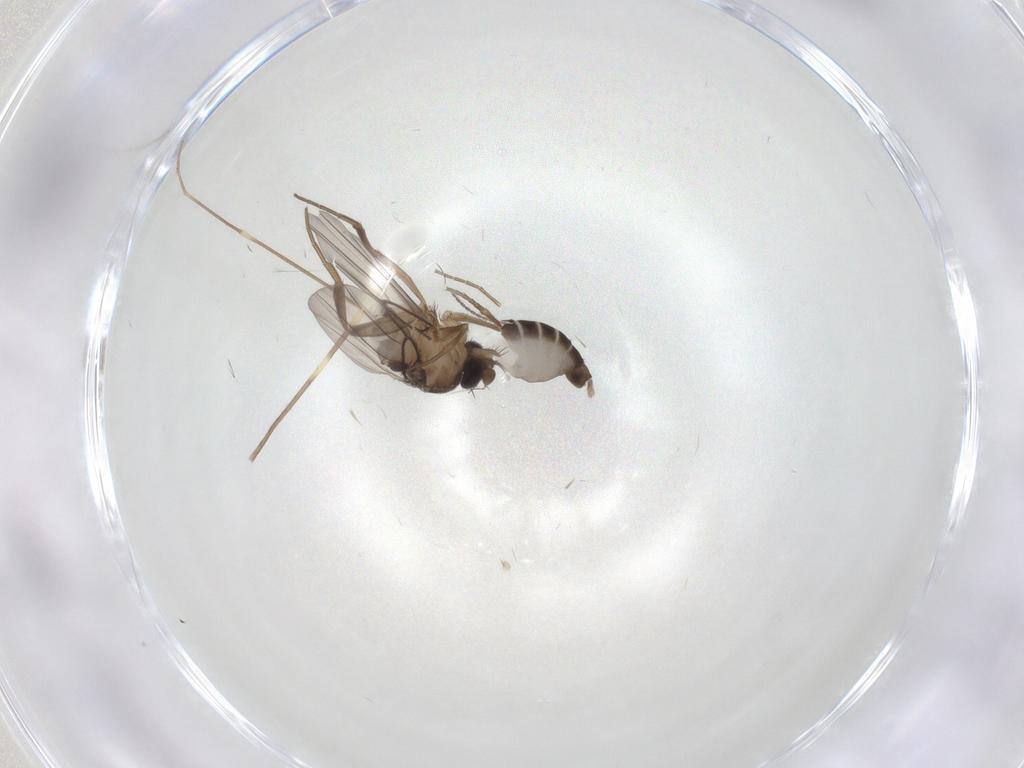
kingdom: Animalia
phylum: Arthropoda
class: Insecta
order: Diptera
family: Phoridae
